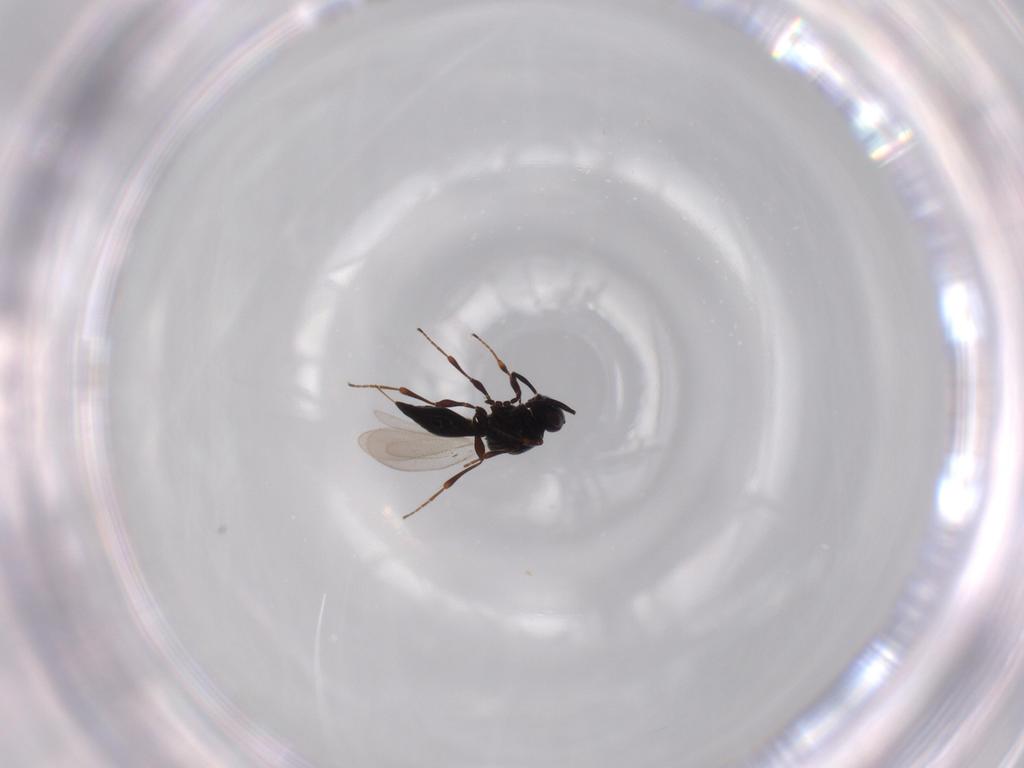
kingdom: Animalia
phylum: Arthropoda
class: Insecta
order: Hymenoptera
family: Platygastridae
